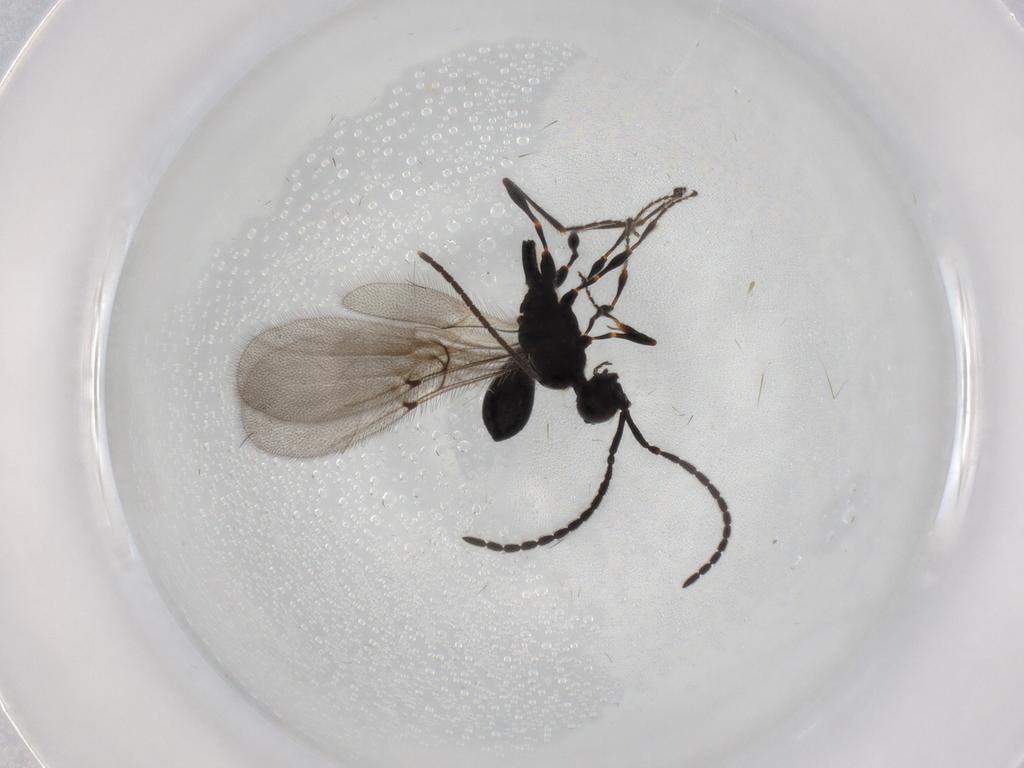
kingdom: Animalia
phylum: Arthropoda
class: Insecta
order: Hymenoptera
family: Diapriidae
